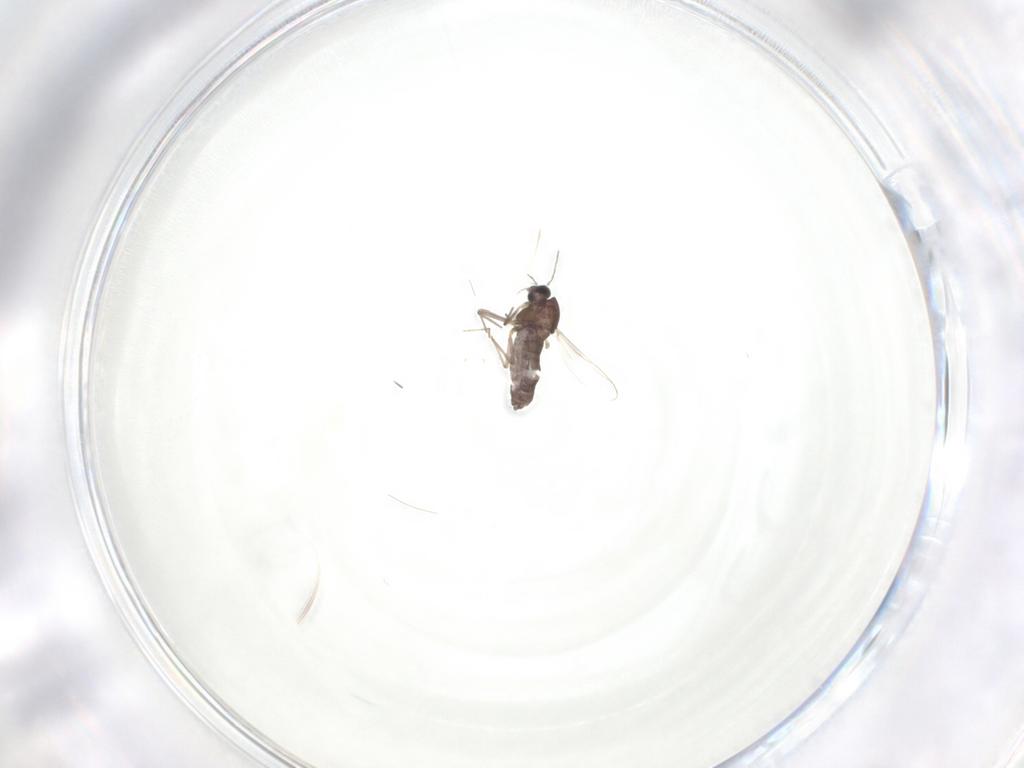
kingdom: Animalia
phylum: Arthropoda
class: Insecta
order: Diptera
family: Chironomidae
